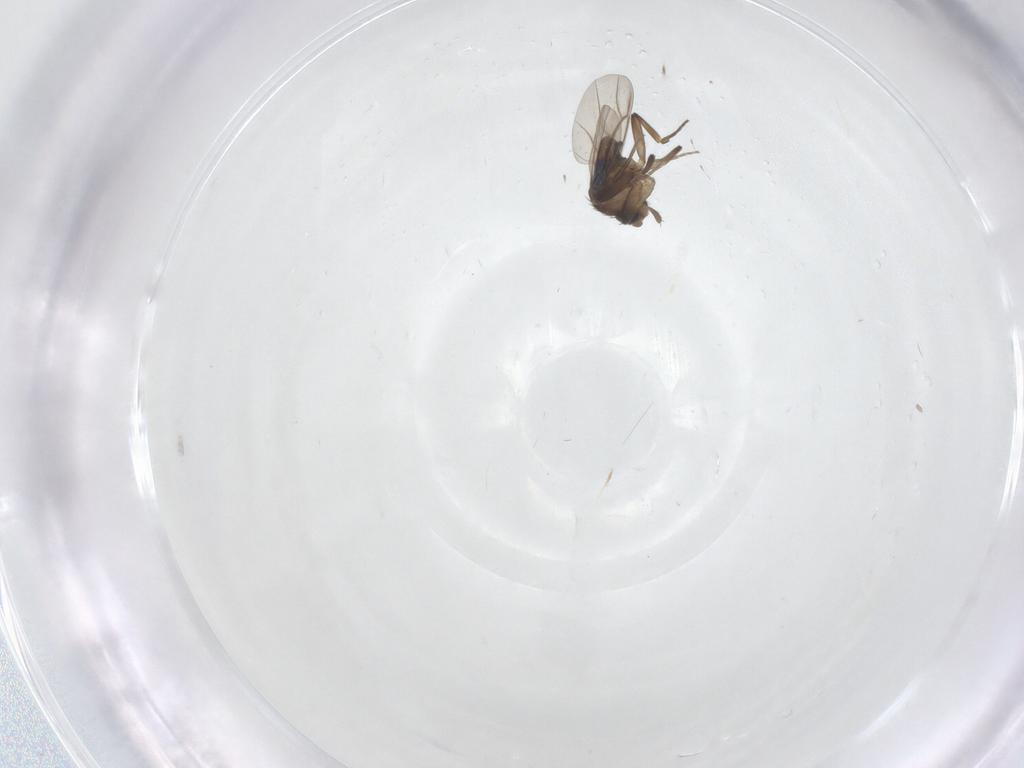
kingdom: Animalia
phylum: Arthropoda
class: Insecta
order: Diptera
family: Phoridae
